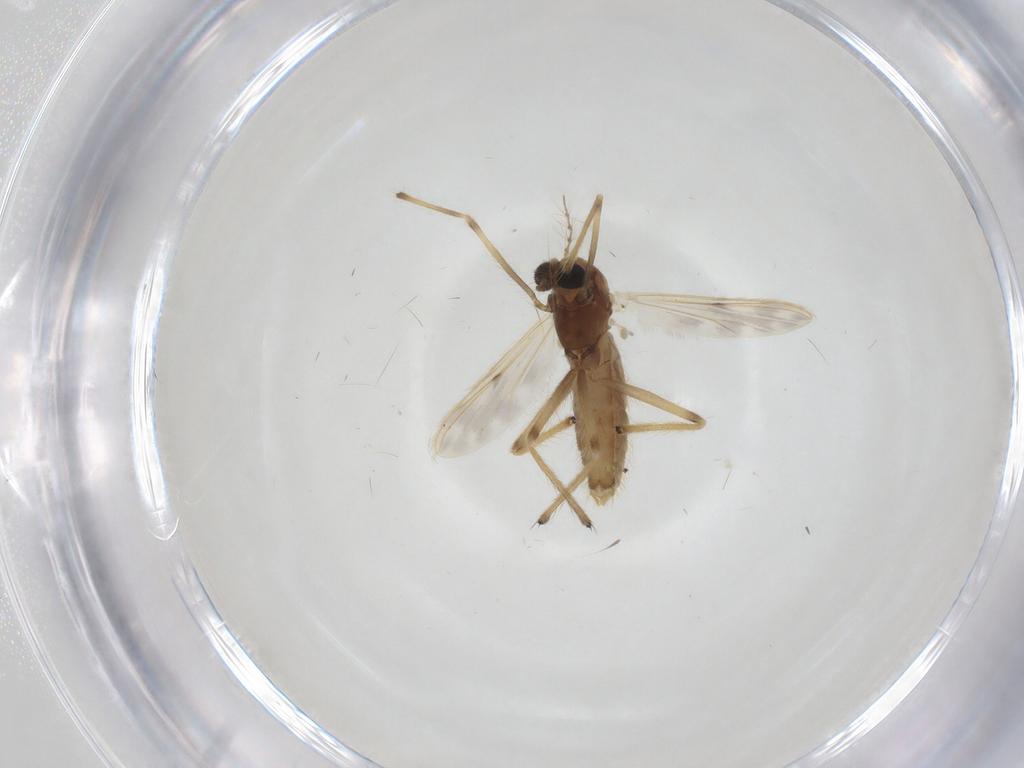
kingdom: Animalia
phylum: Arthropoda
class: Insecta
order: Diptera
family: Chironomidae
